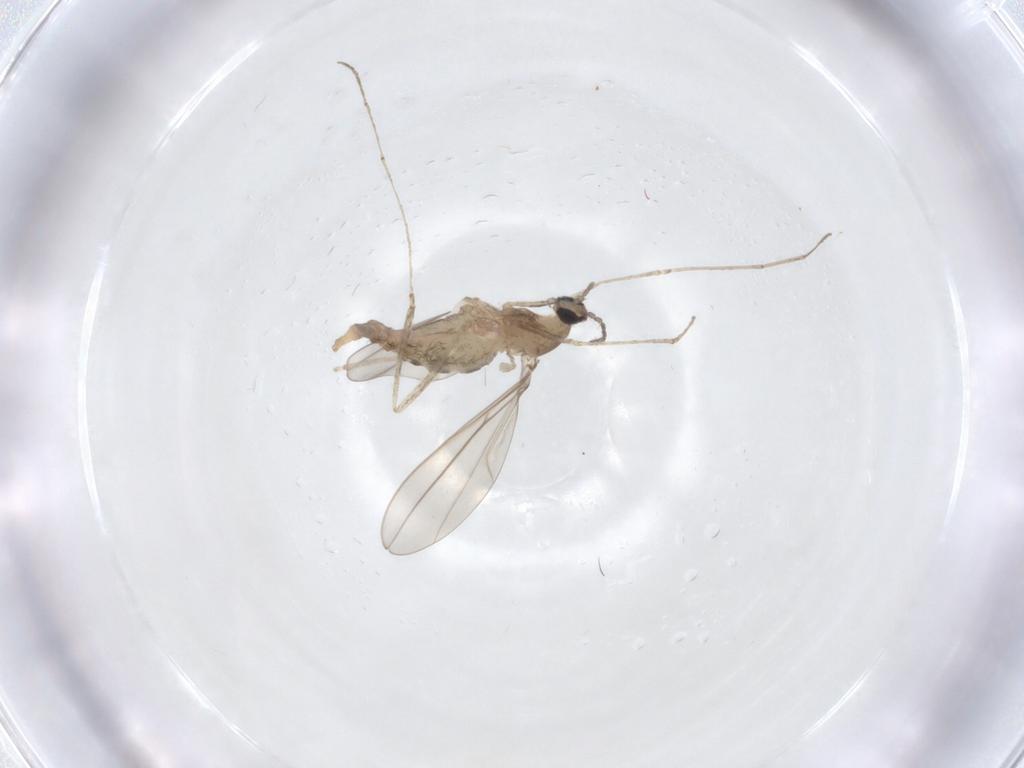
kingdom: Animalia
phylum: Arthropoda
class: Insecta
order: Diptera
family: Cecidomyiidae
